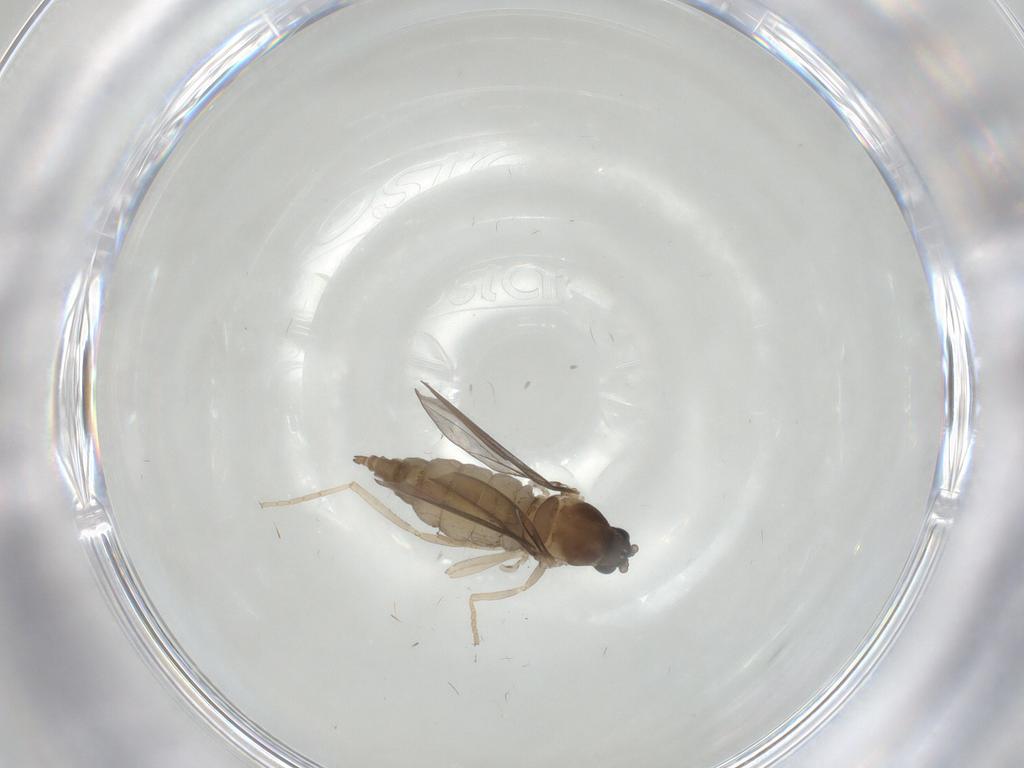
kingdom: Animalia
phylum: Arthropoda
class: Insecta
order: Diptera
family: Cecidomyiidae
